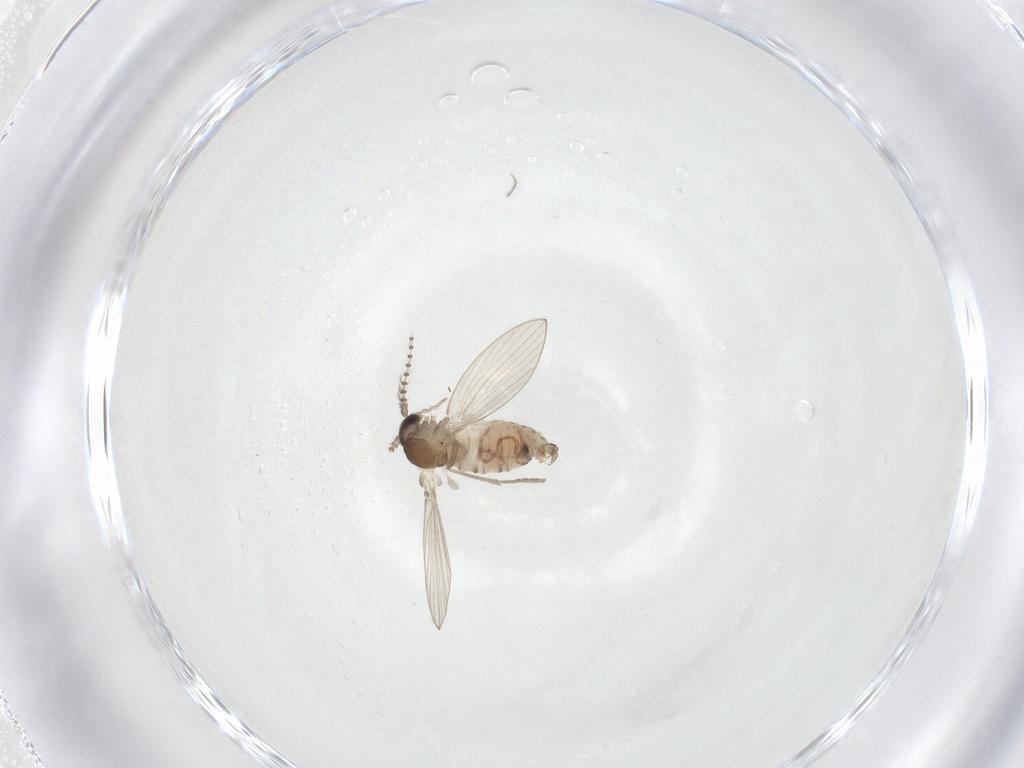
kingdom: Animalia
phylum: Arthropoda
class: Insecta
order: Diptera
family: Psychodidae
